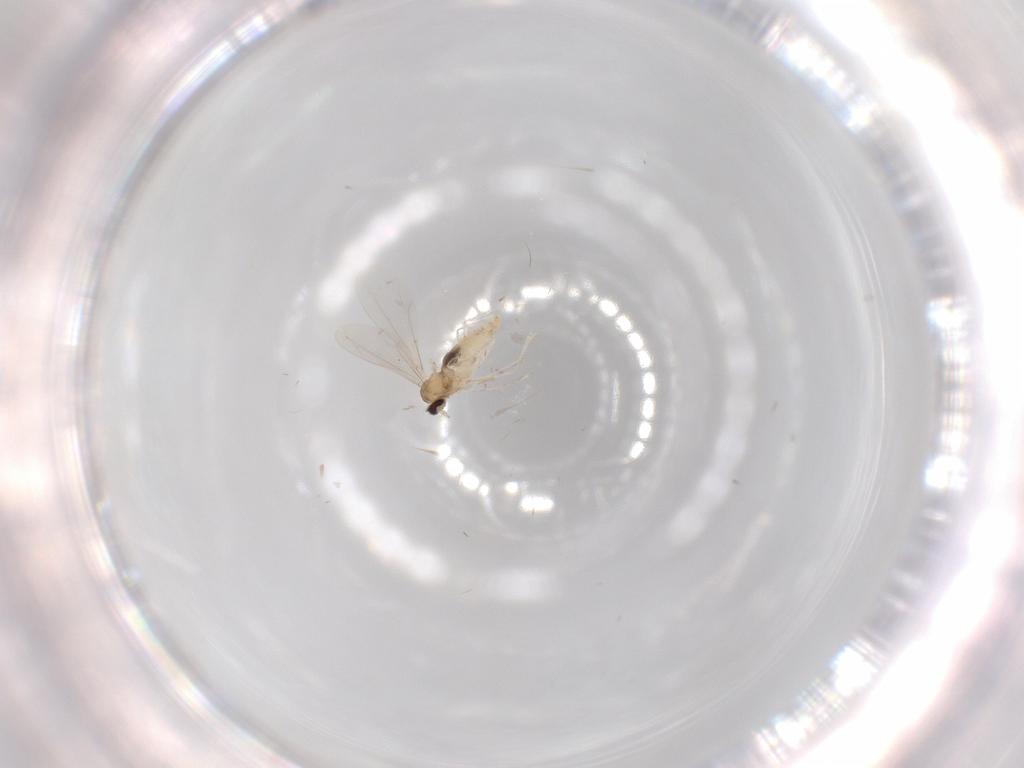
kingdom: Animalia
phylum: Arthropoda
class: Insecta
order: Diptera
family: Cecidomyiidae
